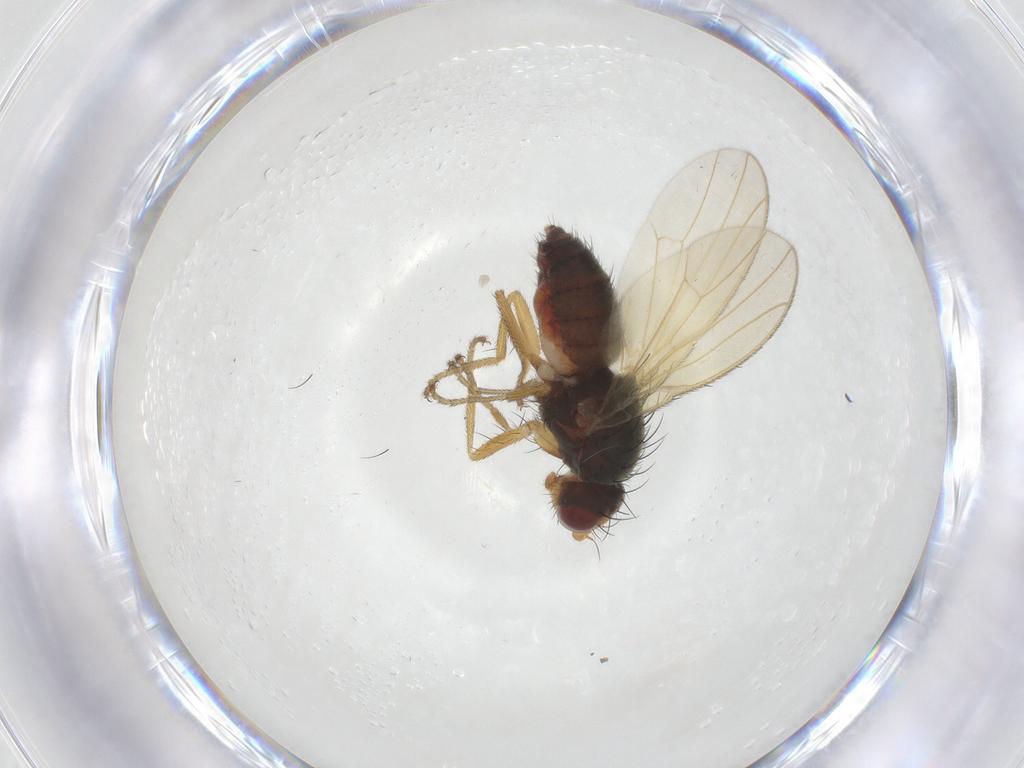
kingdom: Animalia
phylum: Arthropoda
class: Insecta
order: Diptera
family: Heleomyzidae
